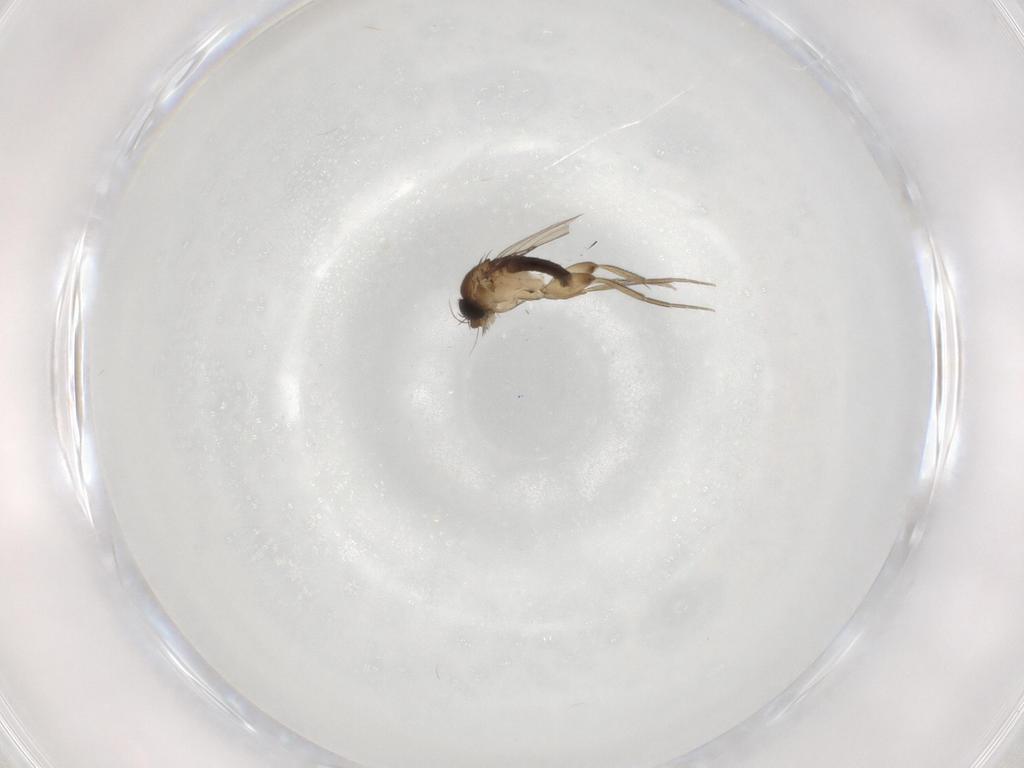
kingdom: Animalia
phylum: Arthropoda
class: Insecta
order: Diptera
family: Phoridae
